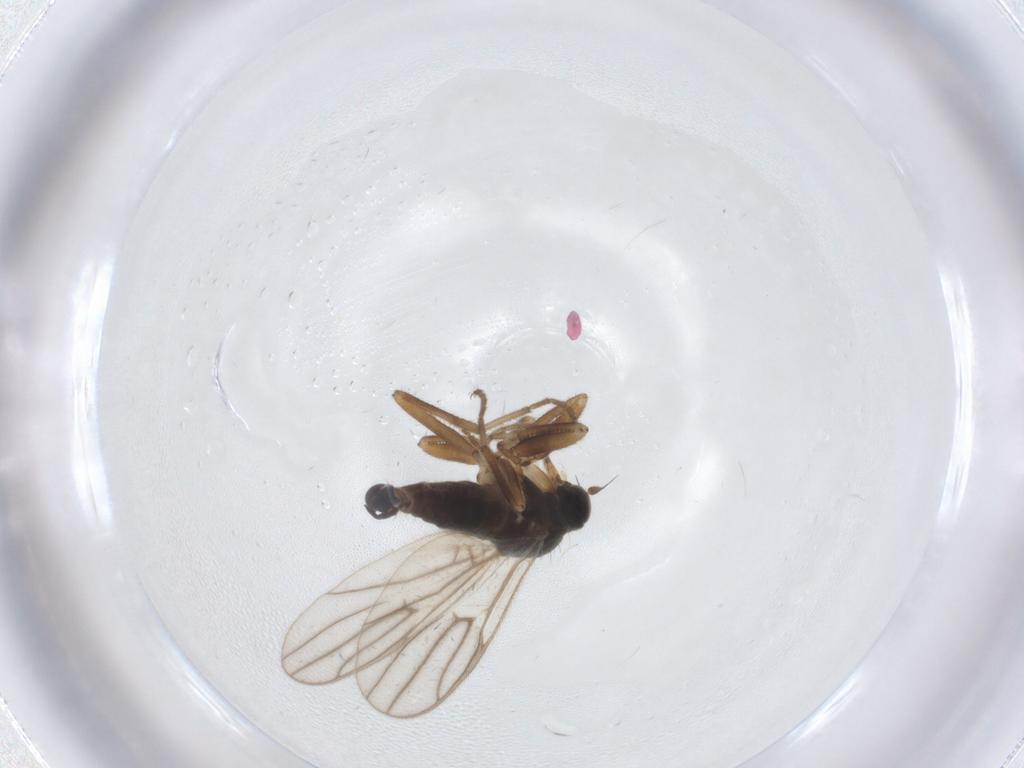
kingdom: Animalia
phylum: Arthropoda
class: Insecta
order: Diptera
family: Hybotidae
